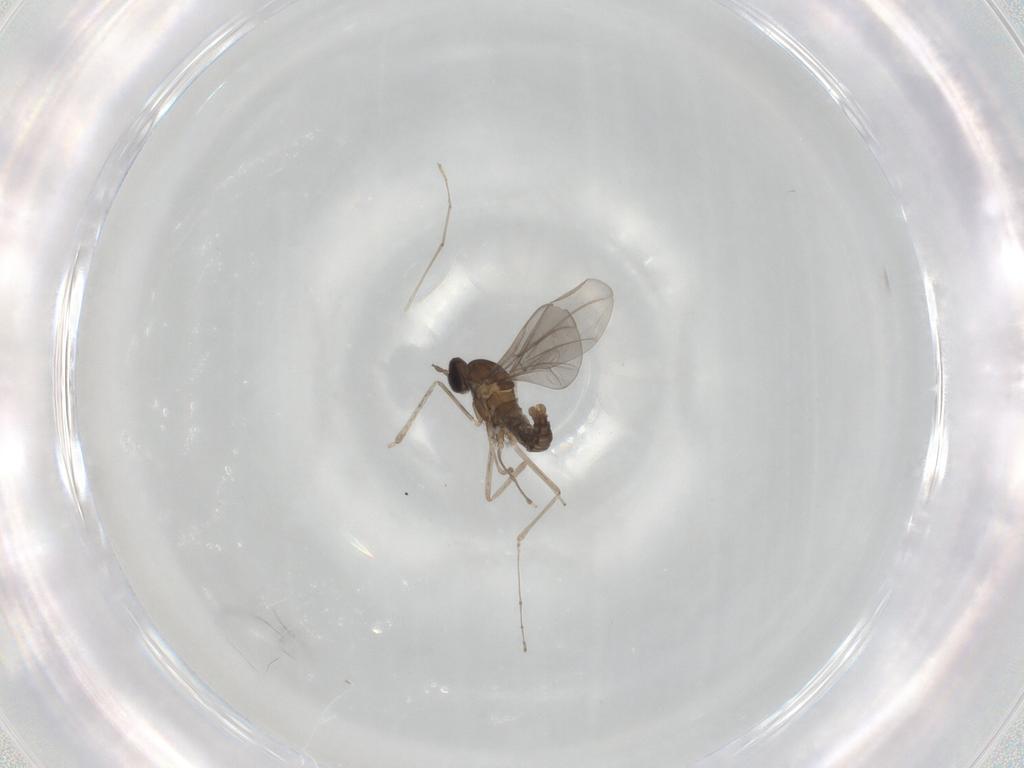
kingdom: Animalia
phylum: Arthropoda
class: Insecta
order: Diptera
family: Cecidomyiidae
